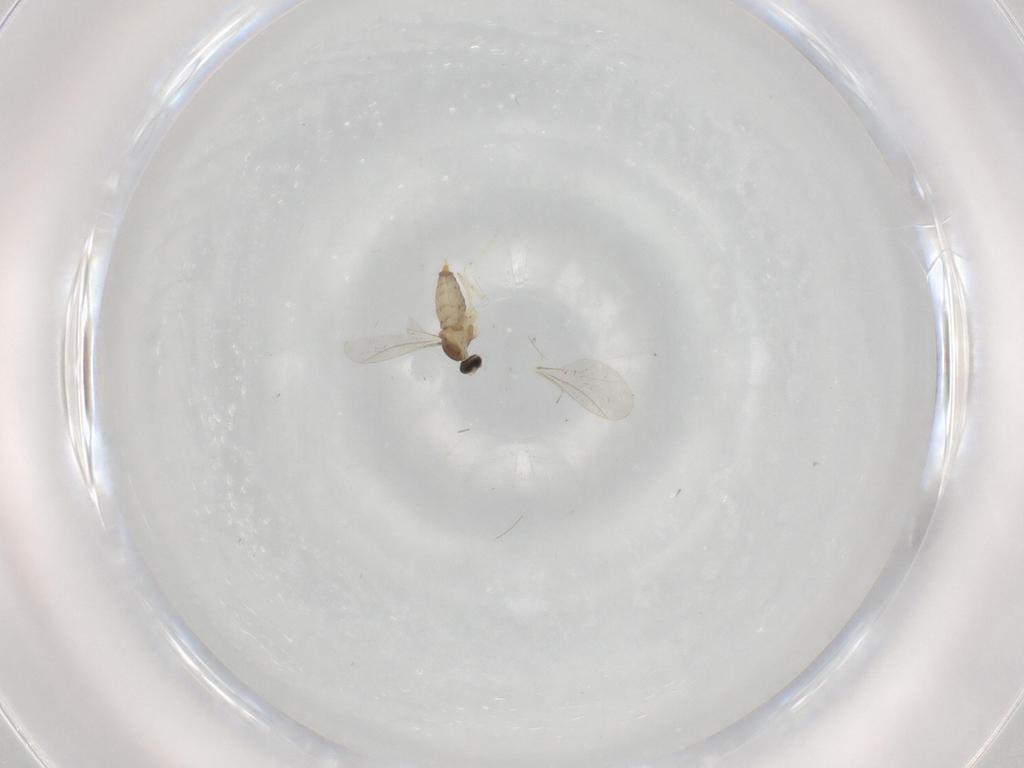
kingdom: Animalia
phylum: Arthropoda
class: Insecta
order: Diptera
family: Cecidomyiidae
